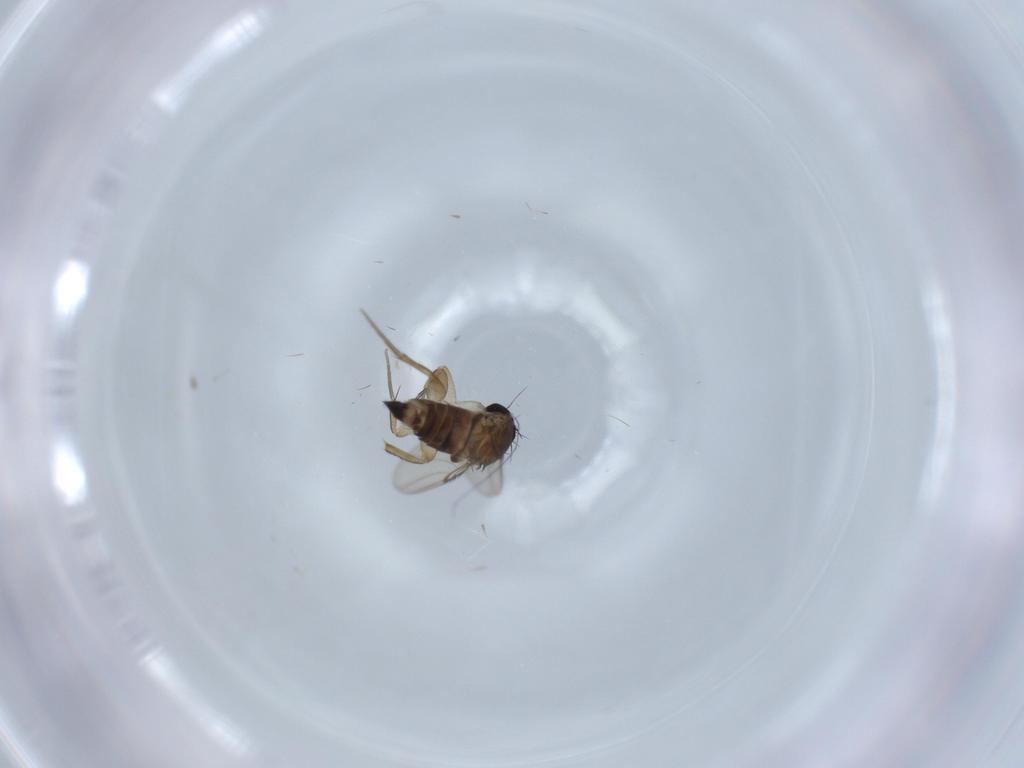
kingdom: Animalia
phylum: Arthropoda
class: Insecta
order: Diptera
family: Phoridae
